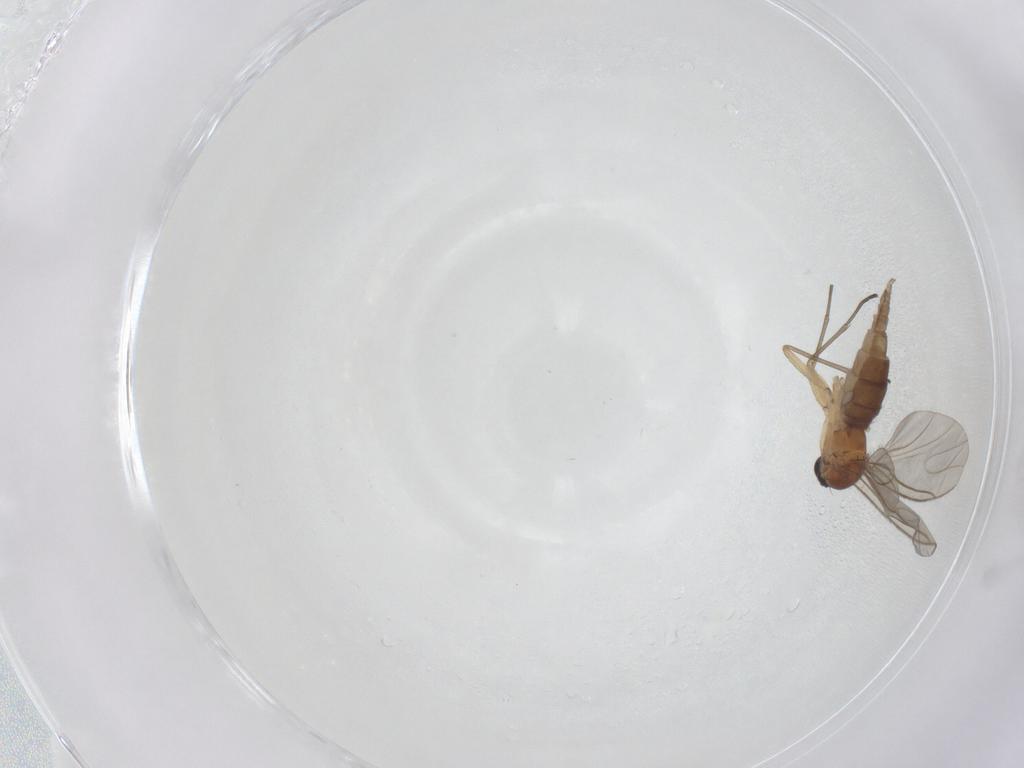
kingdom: Animalia
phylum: Arthropoda
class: Insecta
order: Diptera
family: Sciaridae
